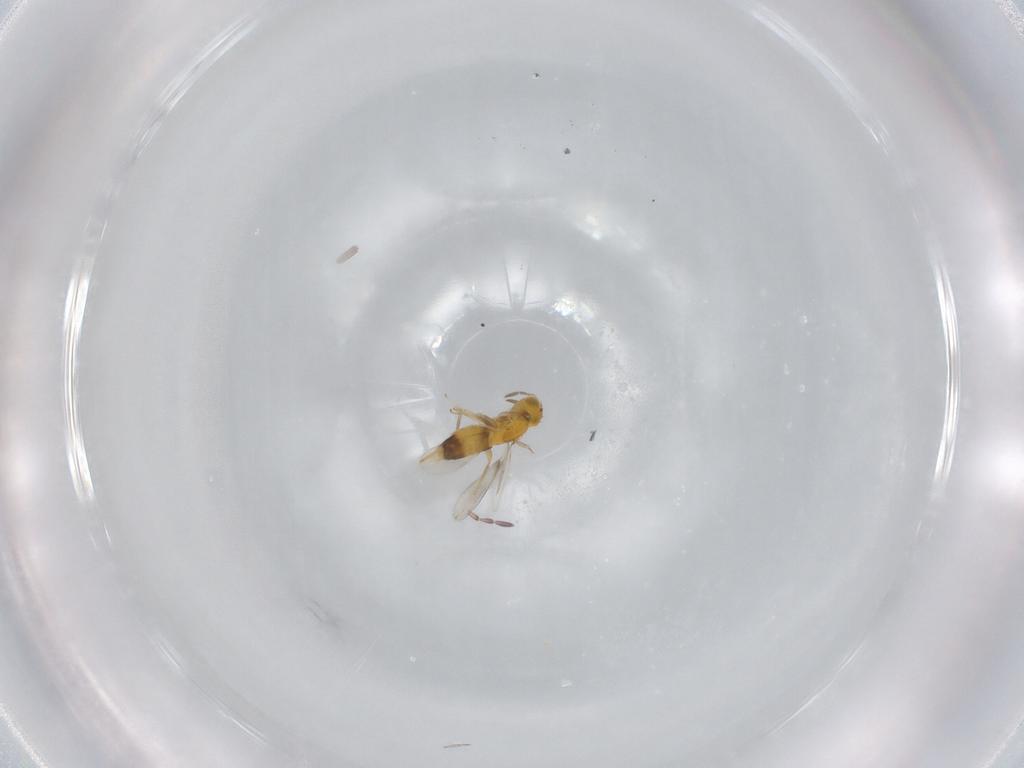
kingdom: Animalia
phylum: Arthropoda
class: Insecta
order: Hymenoptera
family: Aphelinidae
